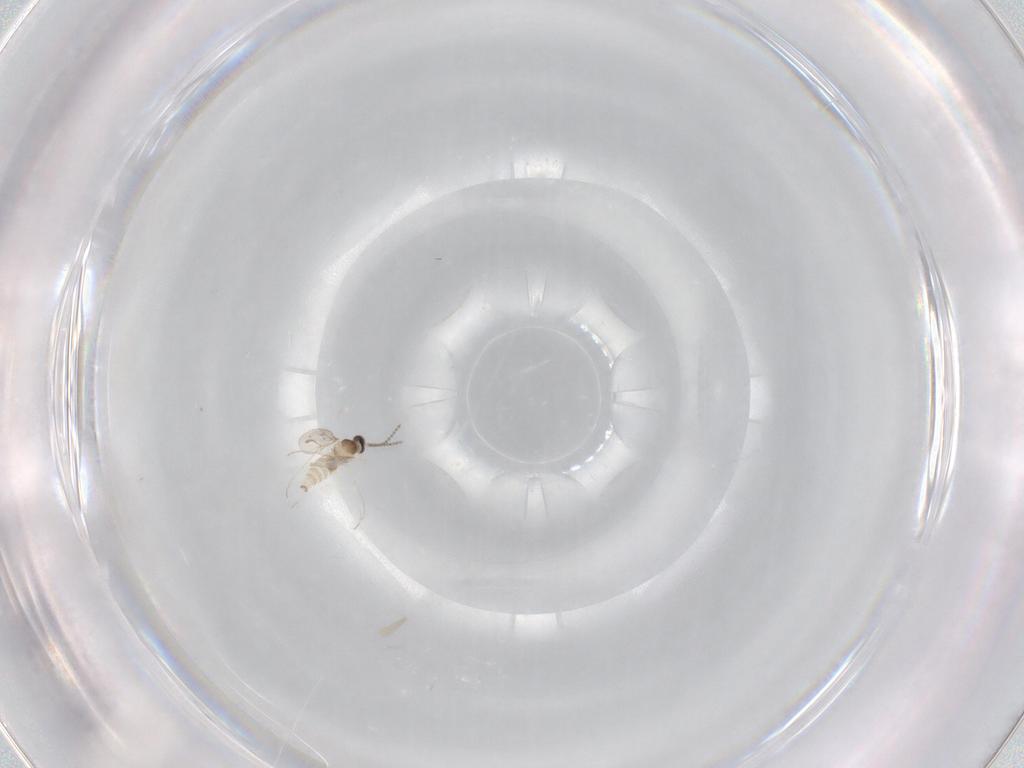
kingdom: Animalia
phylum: Arthropoda
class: Insecta
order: Diptera
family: Cecidomyiidae
